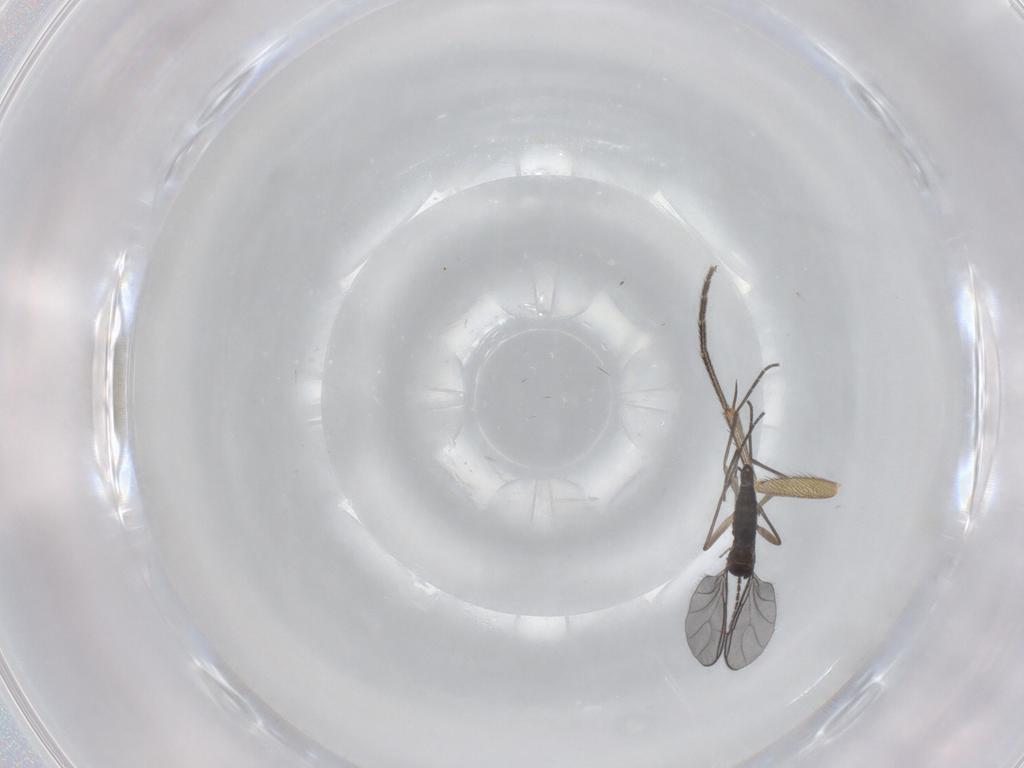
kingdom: Animalia
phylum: Arthropoda
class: Insecta
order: Diptera
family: Sciaridae
